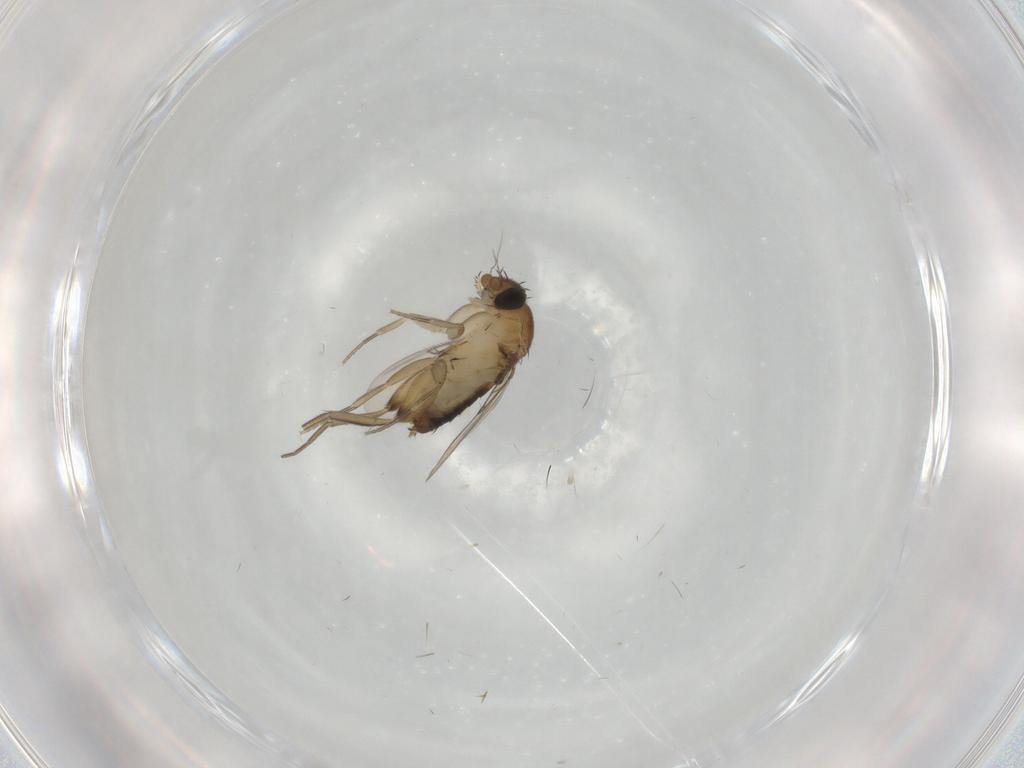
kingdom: Animalia
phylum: Arthropoda
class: Insecta
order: Diptera
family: Phoridae
